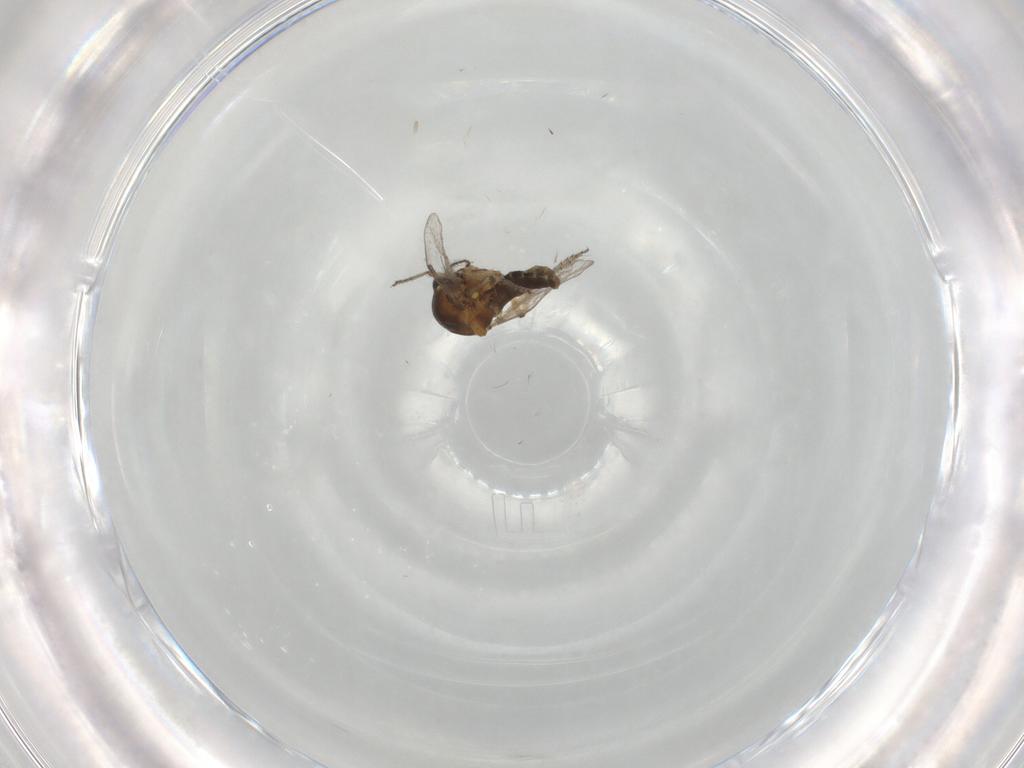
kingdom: Animalia
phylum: Arthropoda
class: Insecta
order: Diptera
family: Ceratopogonidae
